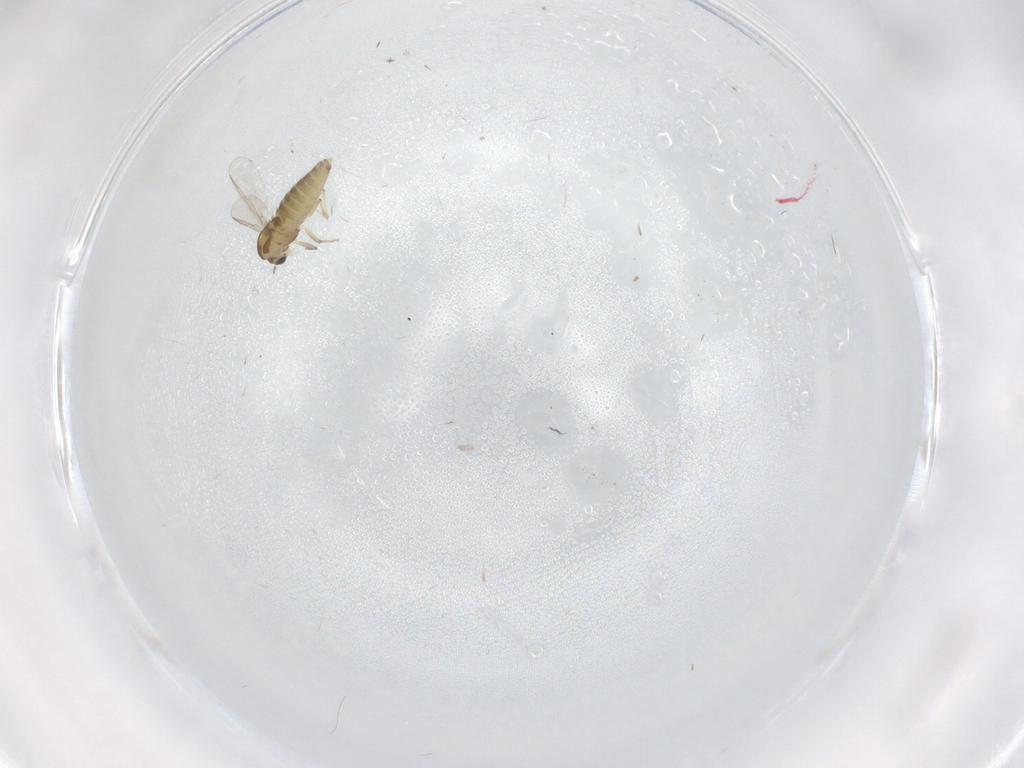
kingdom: Animalia
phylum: Arthropoda
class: Insecta
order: Diptera
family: Chironomidae
